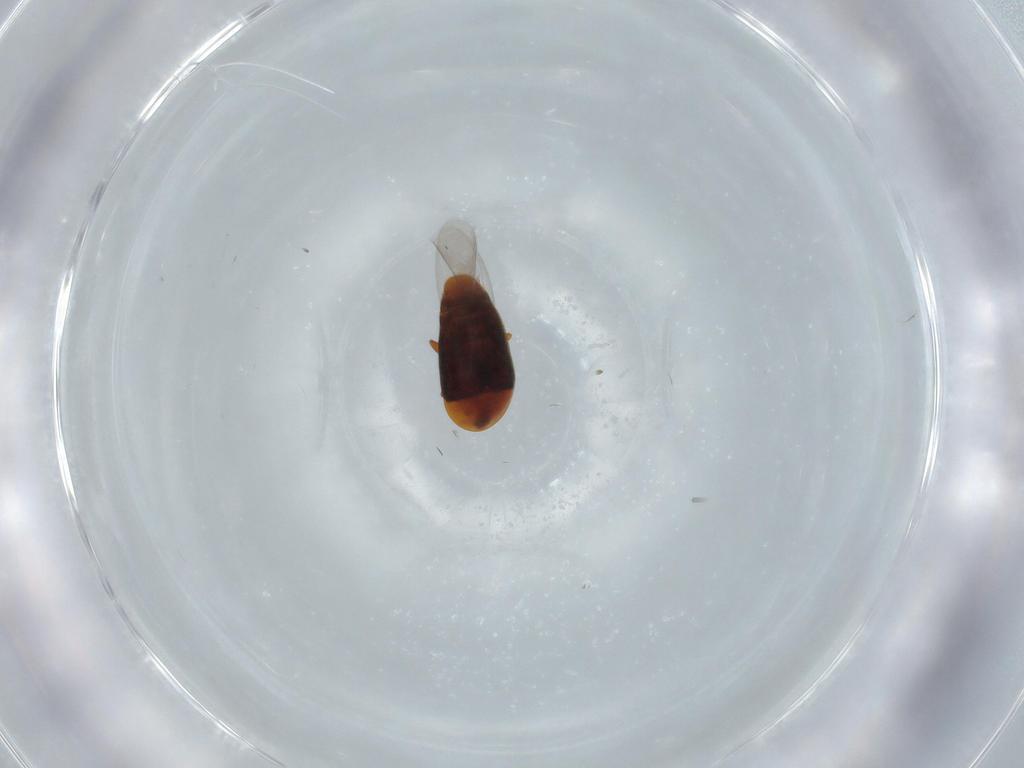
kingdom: Animalia
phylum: Arthropoda
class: Insecta
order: Coleoptera
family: Corylophidae
